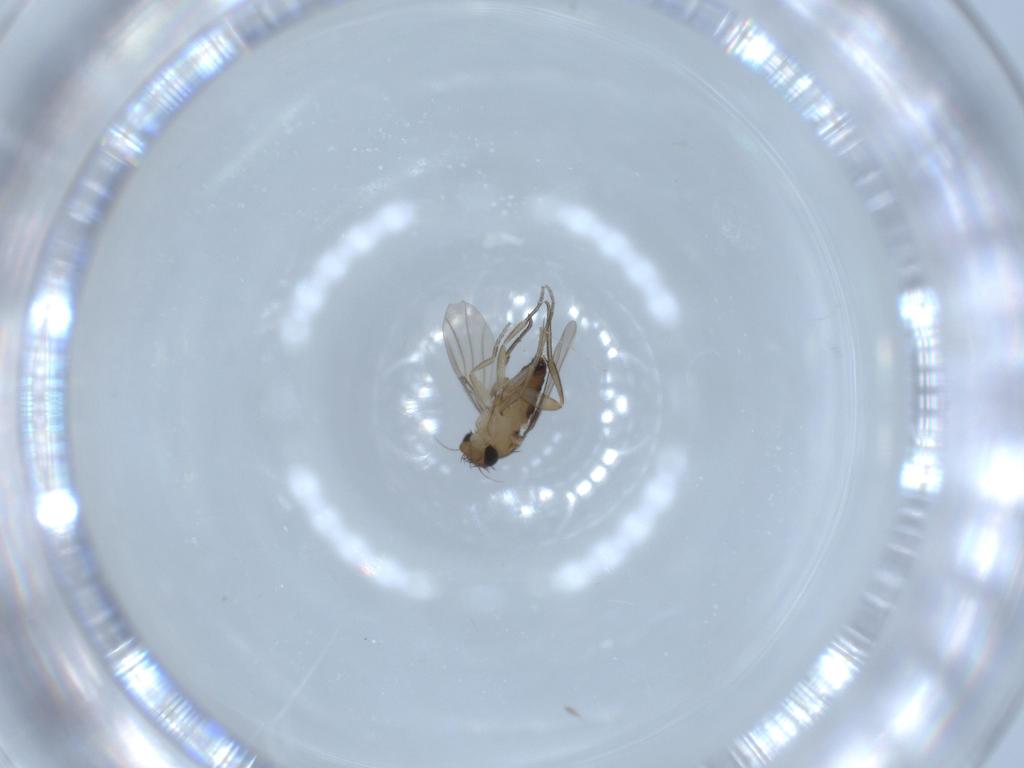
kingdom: Animalia
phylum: Arthropoda
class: Insecta
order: Diptera
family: Phoridae
